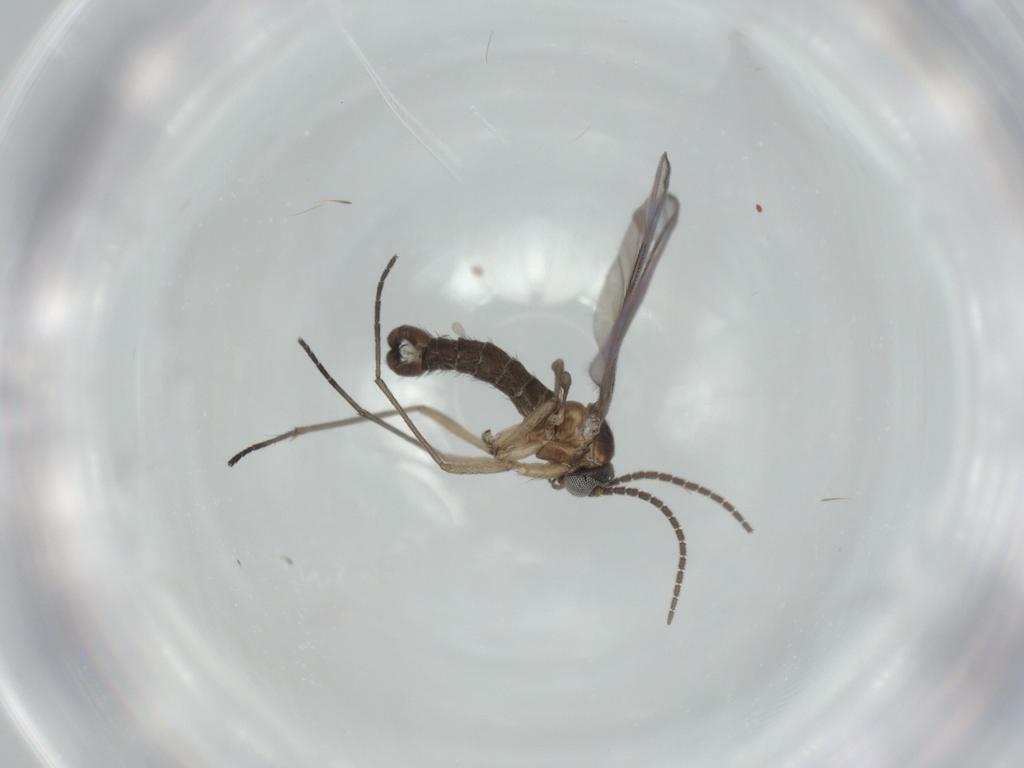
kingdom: Animalia
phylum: Arthropoda
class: Insecta
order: Diptera
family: Sciaridae
